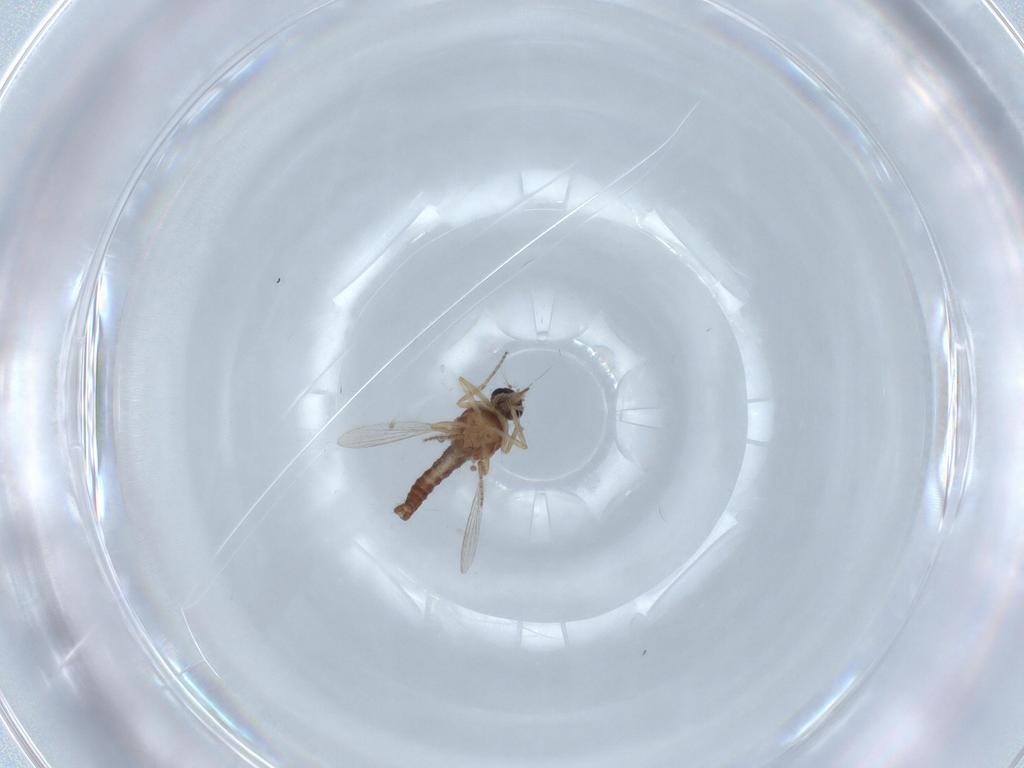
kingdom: Animalia
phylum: Arthropoda
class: Insecta
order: Diptera
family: Ceratopogonidae
